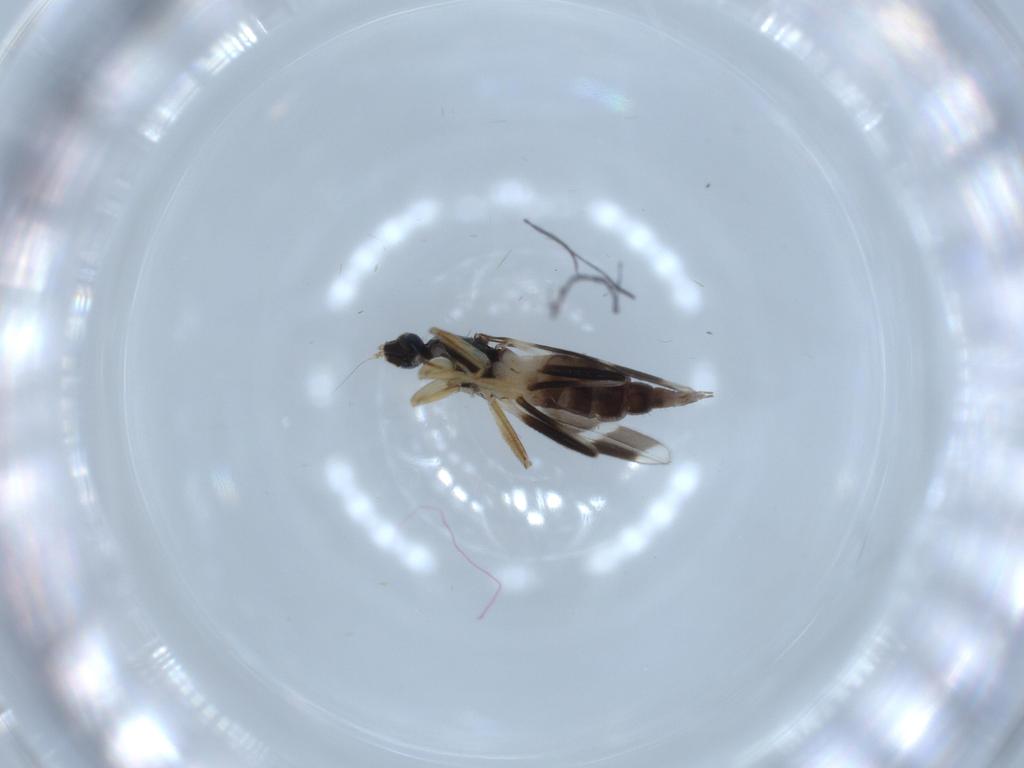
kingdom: Animalia
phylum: Arthropoda
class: Insecta
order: Diptera
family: Hybotidae
